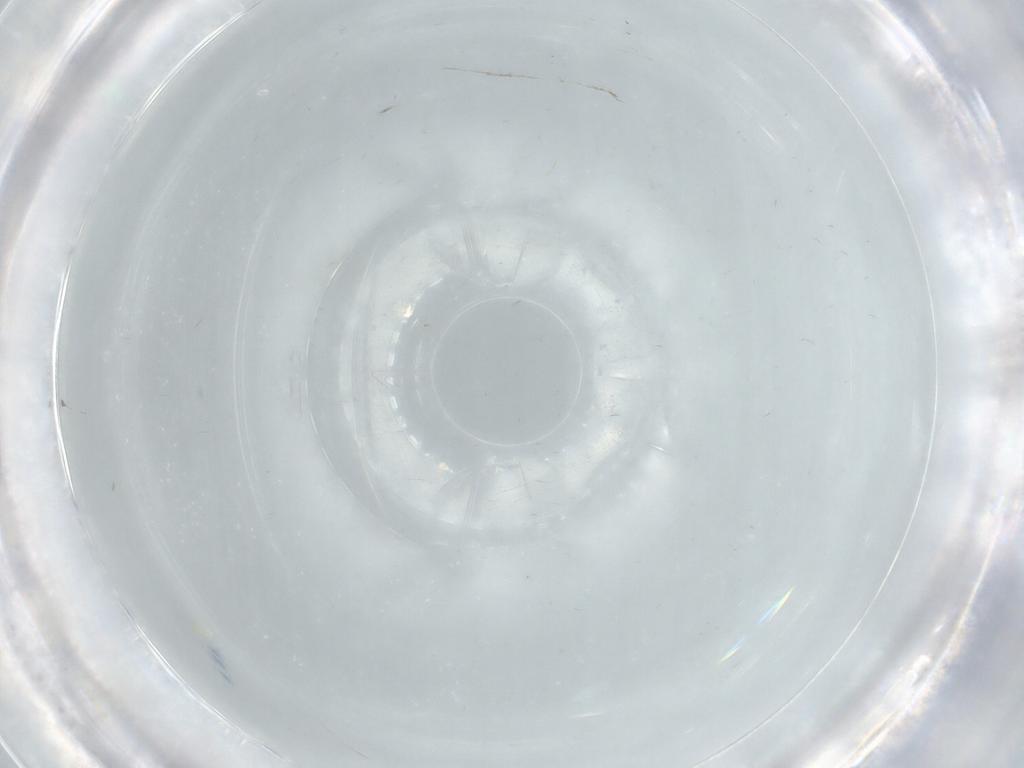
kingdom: Animalia
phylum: Arthropoda
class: Insecta
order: Diptera
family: Cecidomyiidae
